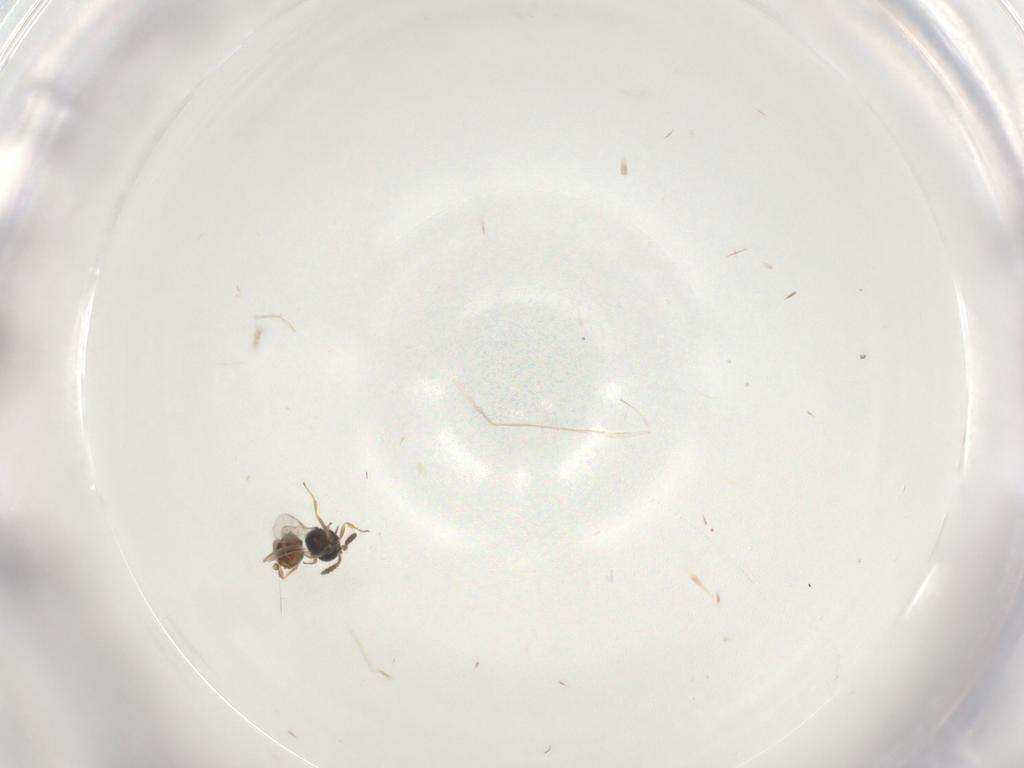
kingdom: Animalia
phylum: Arthropoda
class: Insecta
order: Hymenoptera
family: Scelionidae
